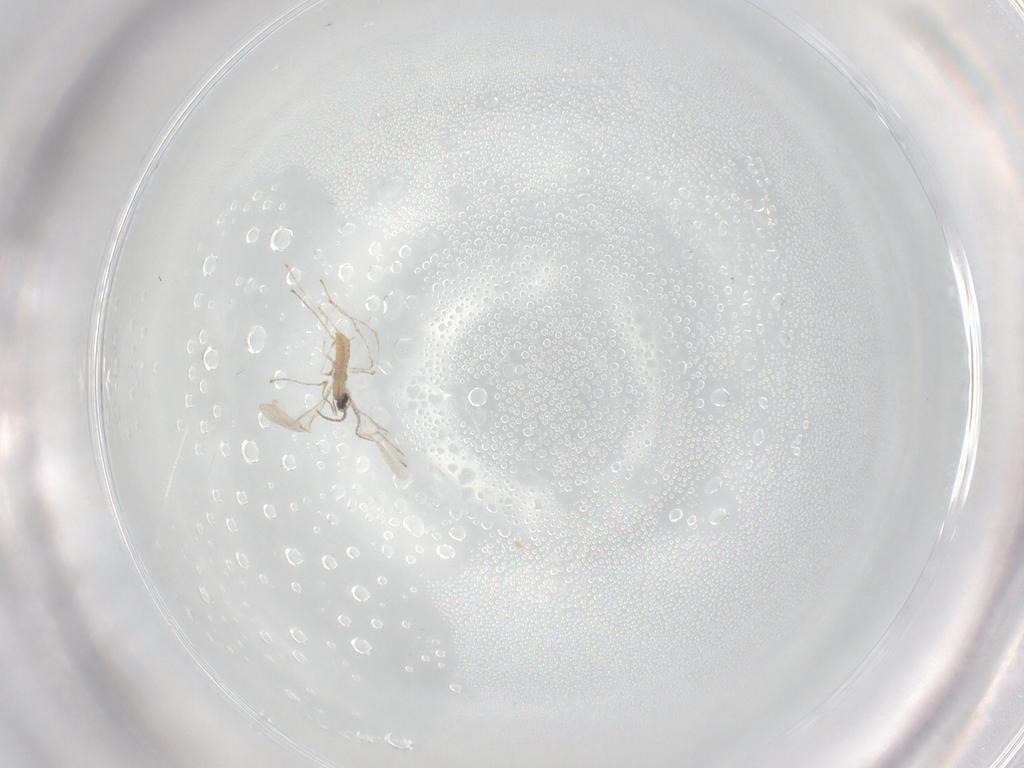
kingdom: Animalia
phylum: Arthropoda
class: Insecta
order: Diptera
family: Cecidomyiidae
